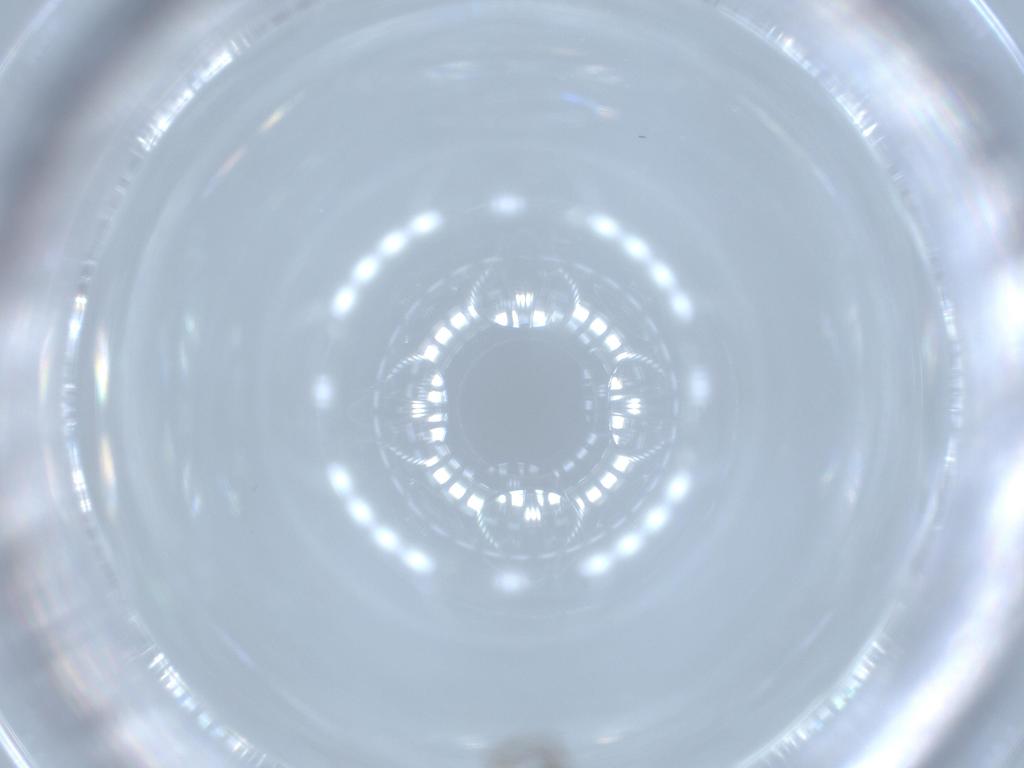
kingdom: Animalia
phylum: Arthropoda
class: Insecta
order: Diptera
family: Chironomidae
